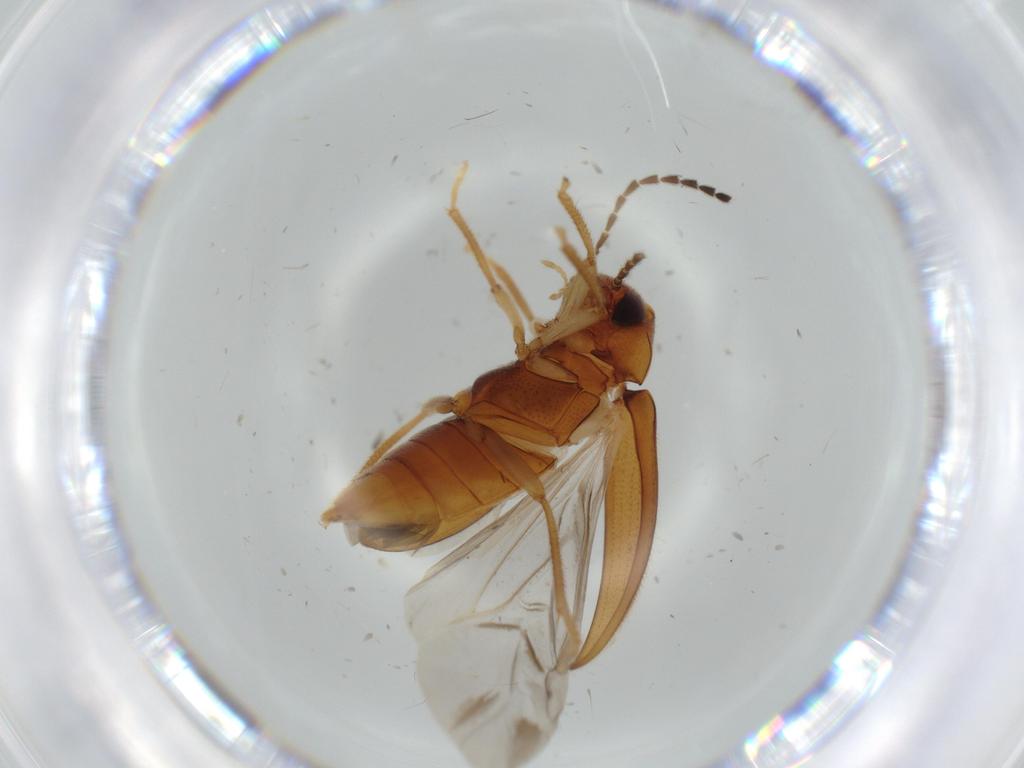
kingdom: Animalia
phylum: Arthropoda
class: Insecta
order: Coleoptera
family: Ptilodactylidae
